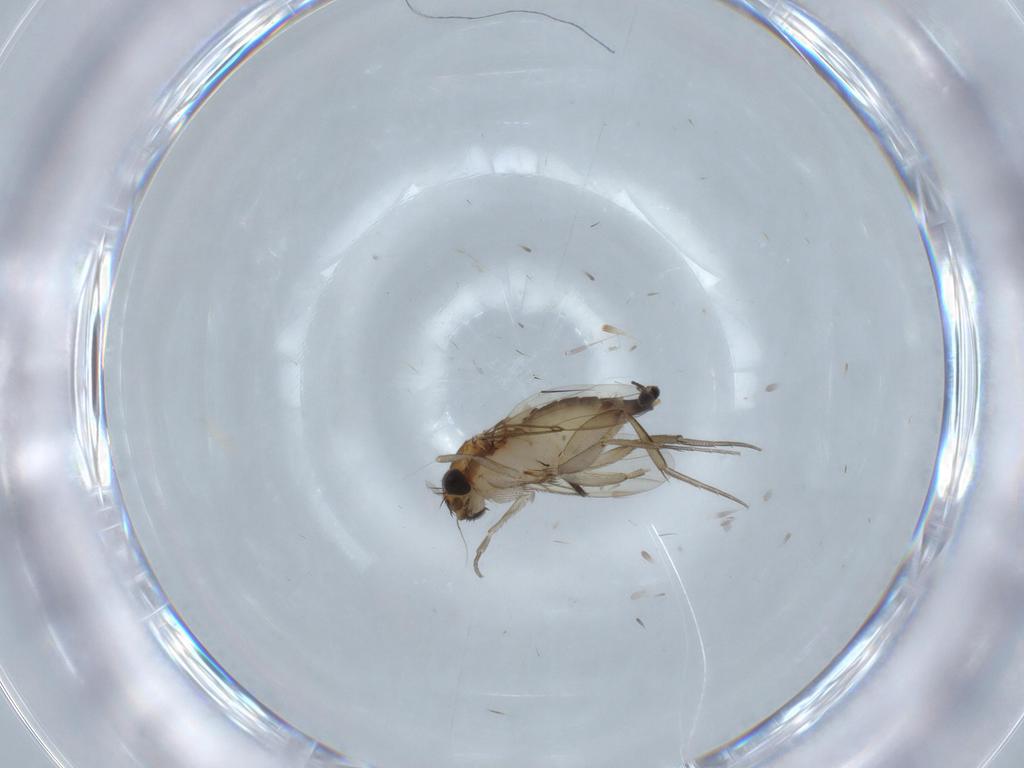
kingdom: Animalia
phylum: Arthropoda
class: Insecta
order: Diptera
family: Phoridae
